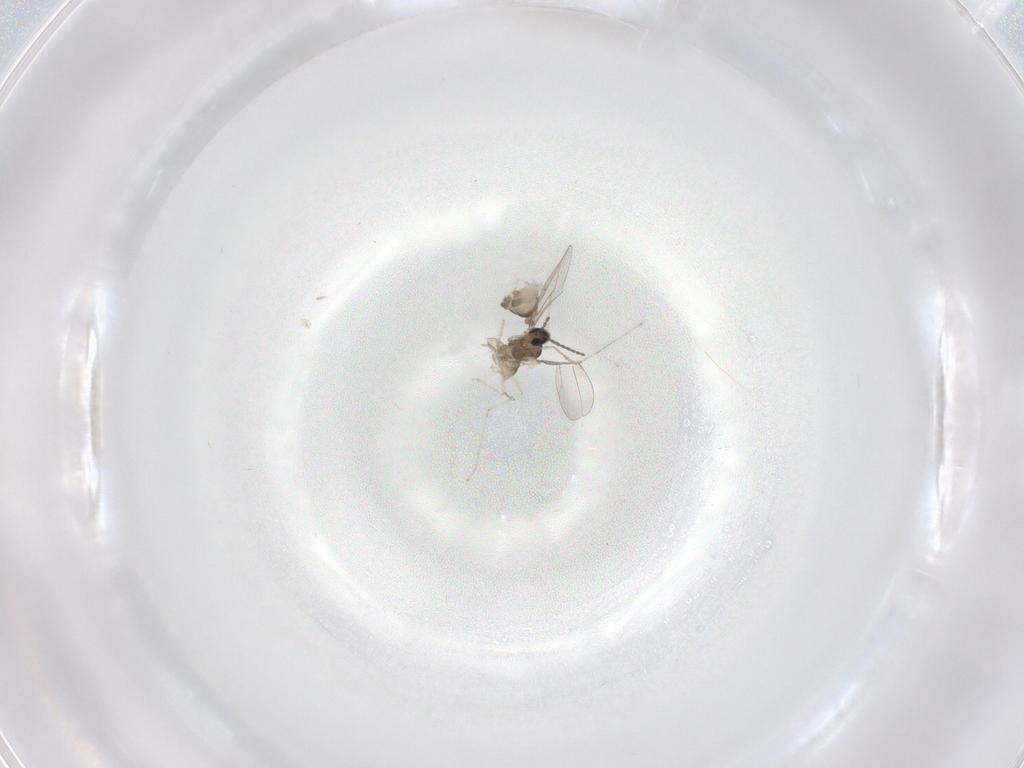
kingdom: Animalia
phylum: Arthropoda
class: Insecta
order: Diptera
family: Cecidomyiidae
